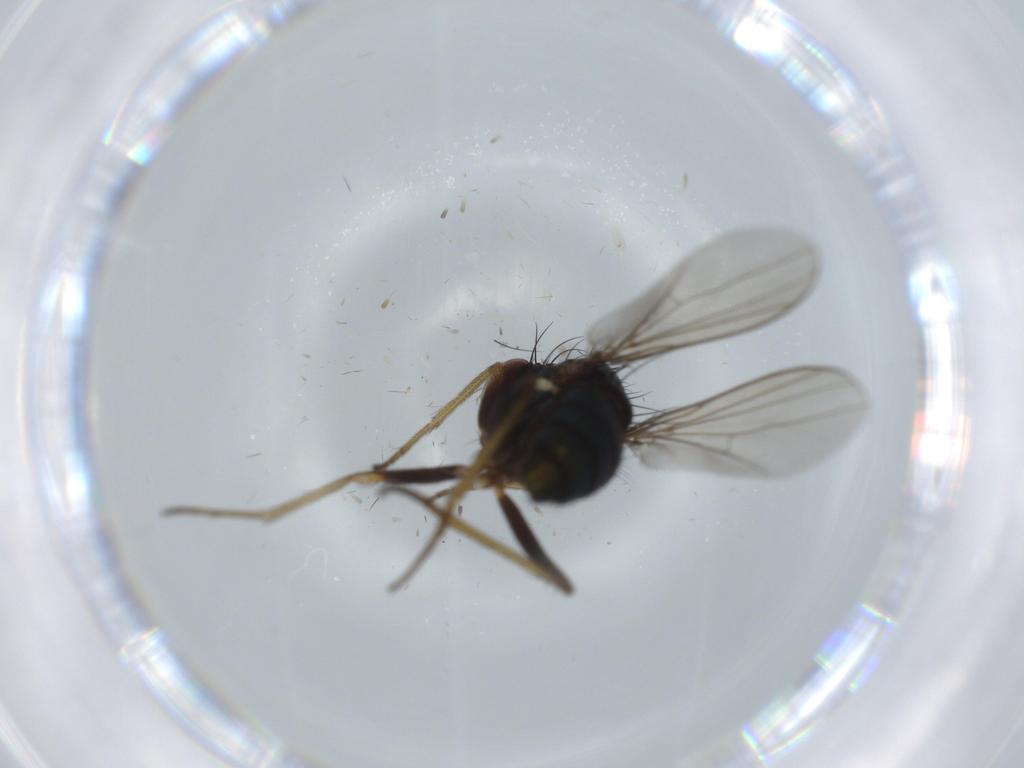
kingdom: Animalia
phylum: Arthropoda
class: Insecta
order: Diptera
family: Dolichopodidae
